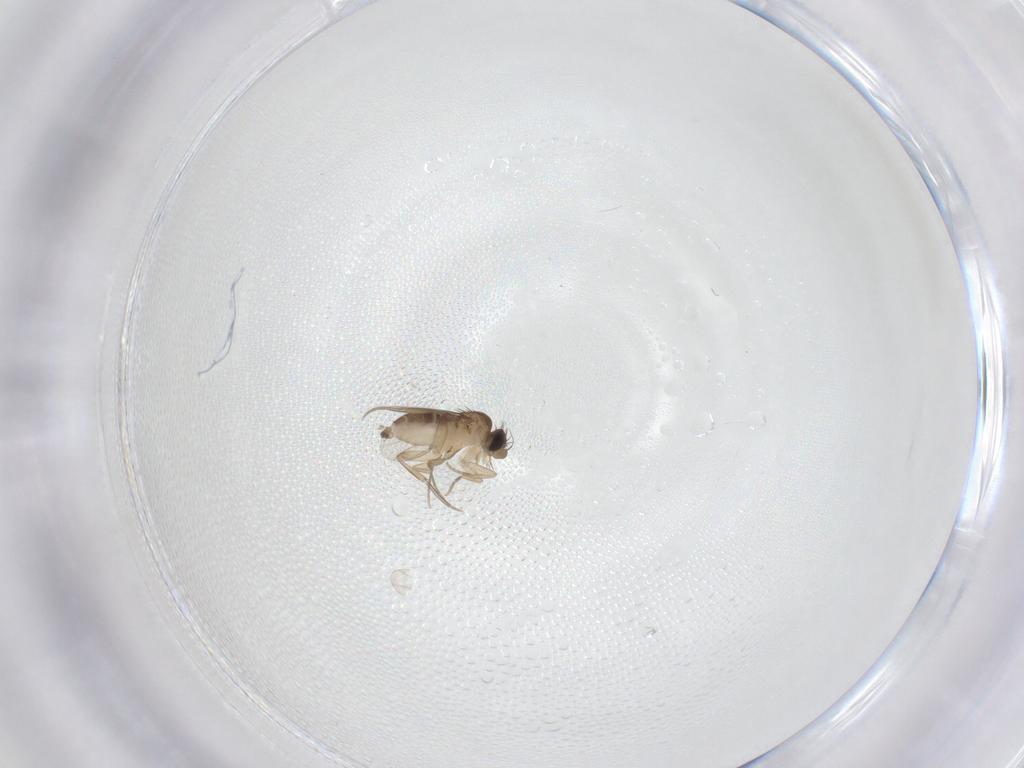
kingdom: Animalia
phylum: Arthropoda
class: Insecta
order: Diptera
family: Phoridae
